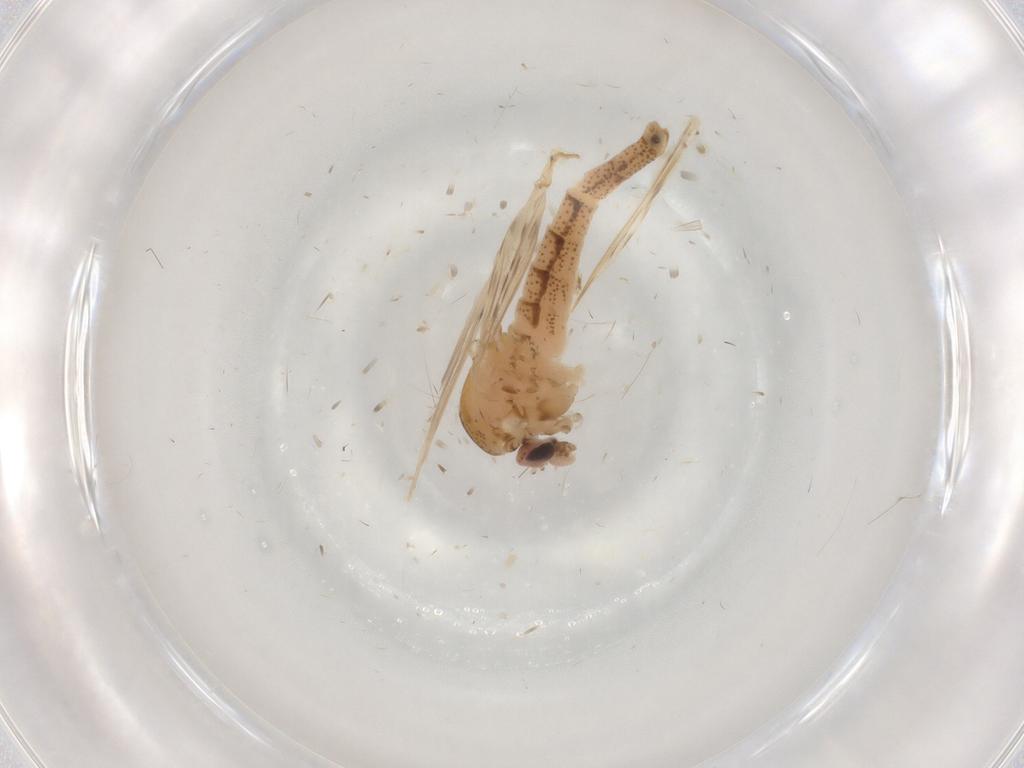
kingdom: Animalia
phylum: Arthropoda
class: Insecta
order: Diptera
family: Chaoboridae
